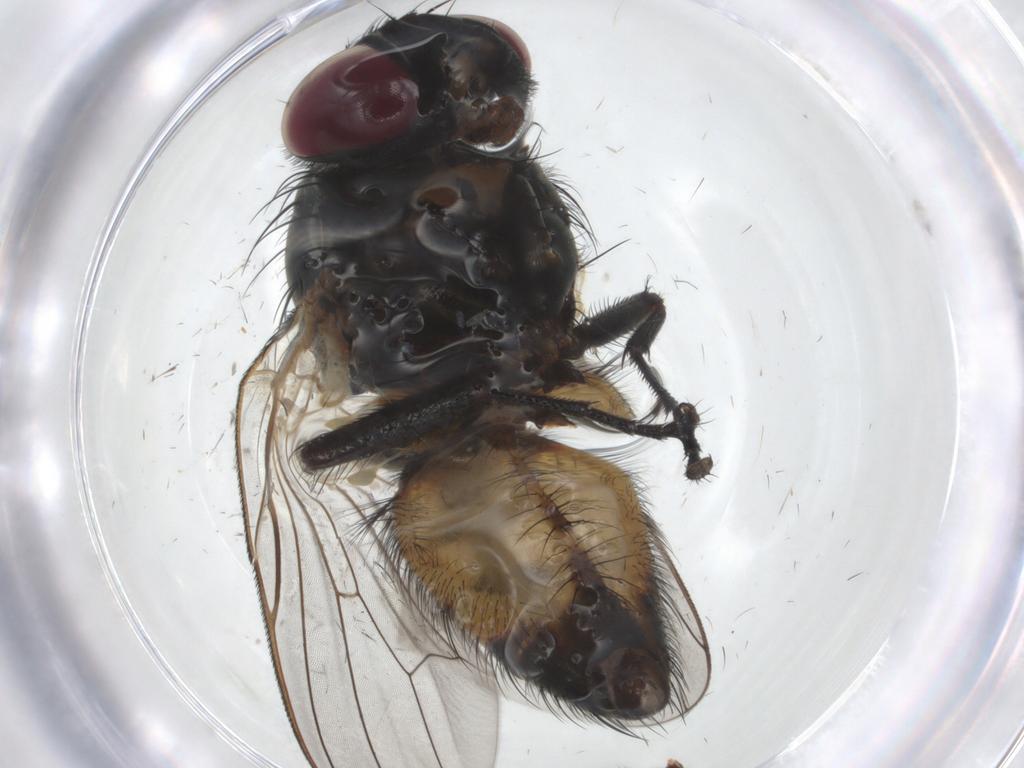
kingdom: Animalia
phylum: Arthropoda
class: Insecta
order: Diptera
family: Fannia
